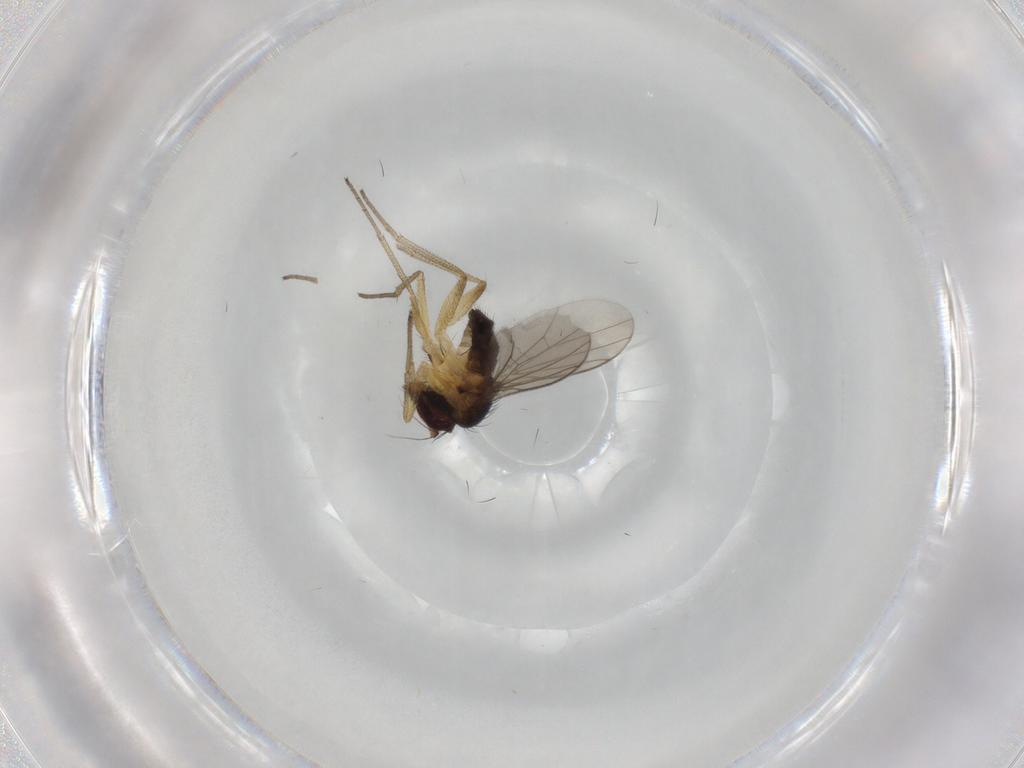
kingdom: Animalia
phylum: Arthropoda
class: Insecta
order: Diptera
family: Dolichopodidae
